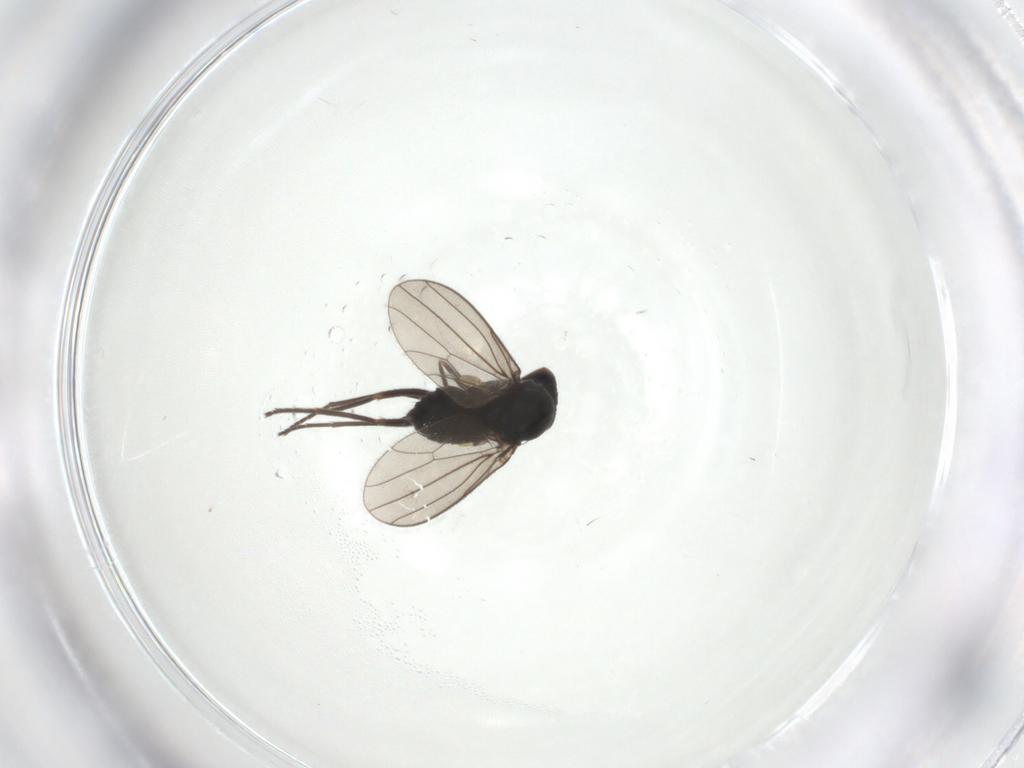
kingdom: Animalia
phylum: Arthropoda
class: Insecta
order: Diptera
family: Dolichopodidae
